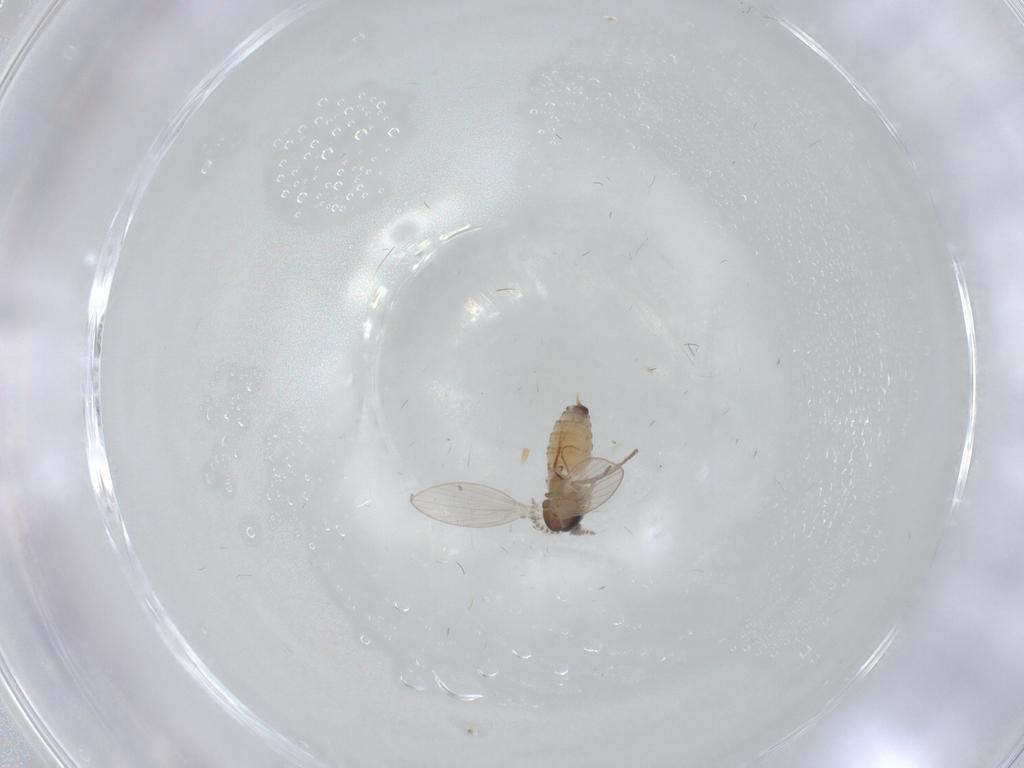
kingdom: Animalia
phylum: Arthropoda
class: Insecta
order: Diptera
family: Psychodidae
